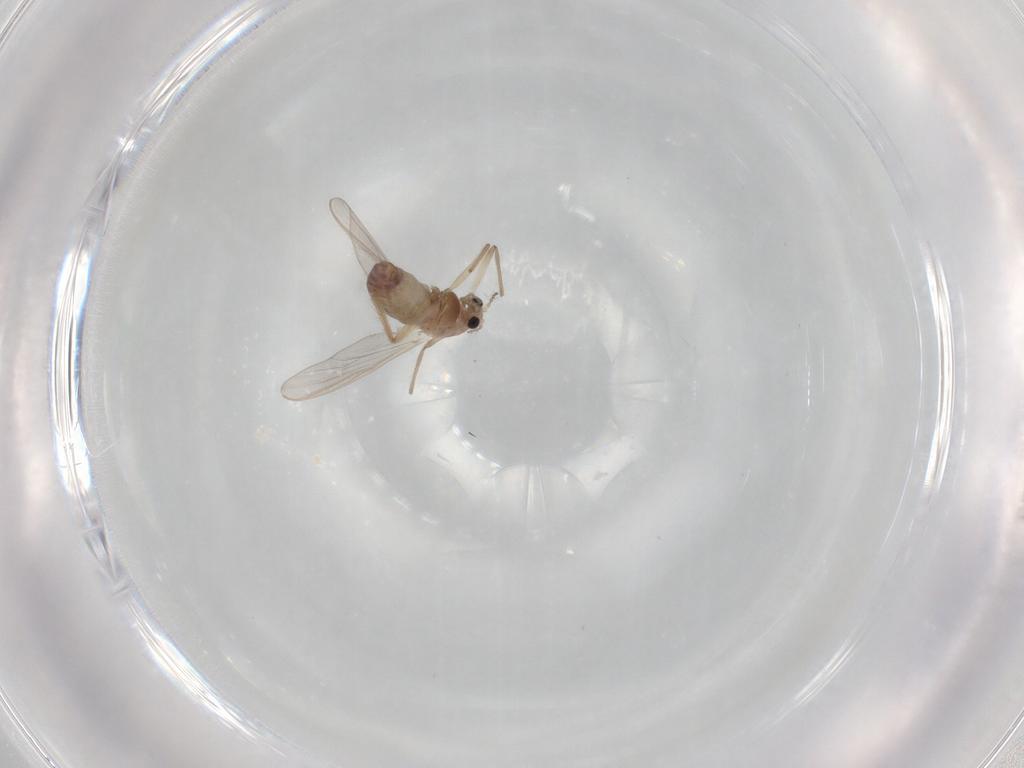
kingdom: Animalia
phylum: Arthropoda
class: Insecta
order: Diptera
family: Chironomidae
